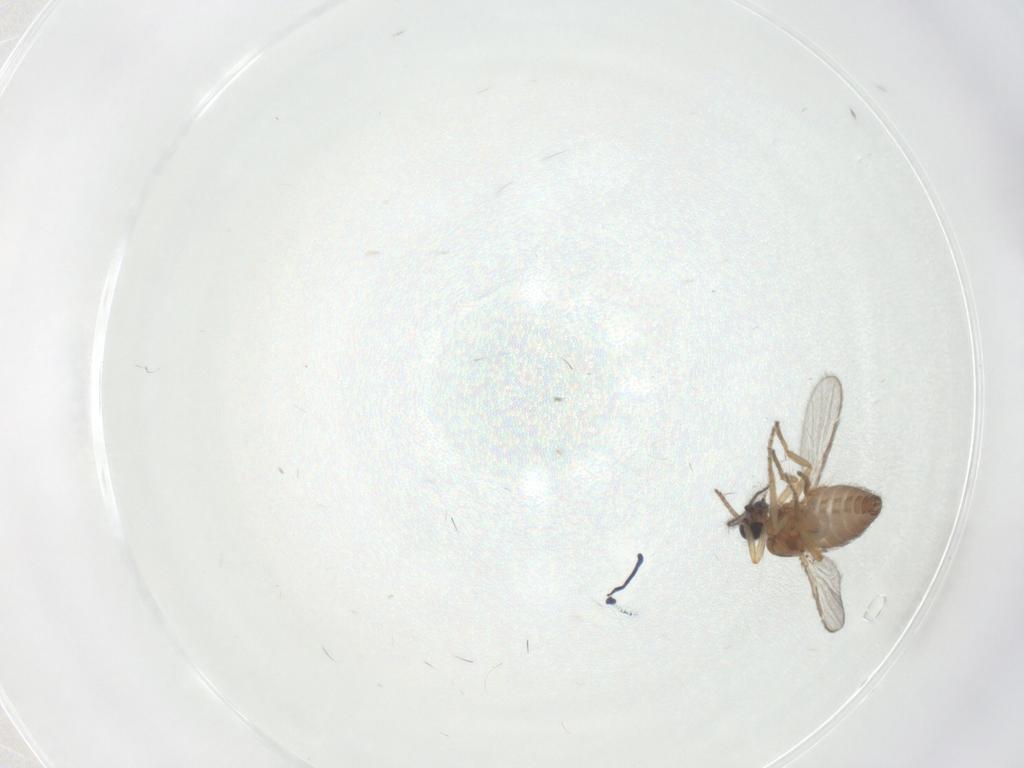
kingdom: Animalia
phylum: Arthropoda
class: Insecta
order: Diptera
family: Ceratopogonidae
